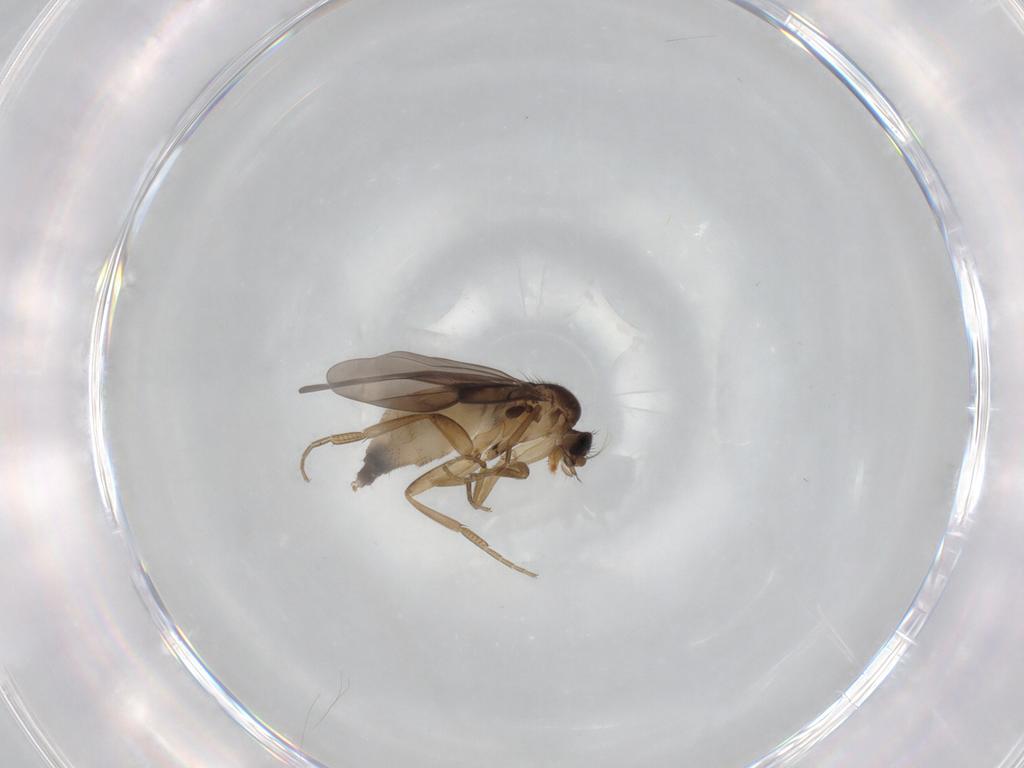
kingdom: Animalia
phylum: Arthropoda
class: Insecta
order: Diptera
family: Phoridae
